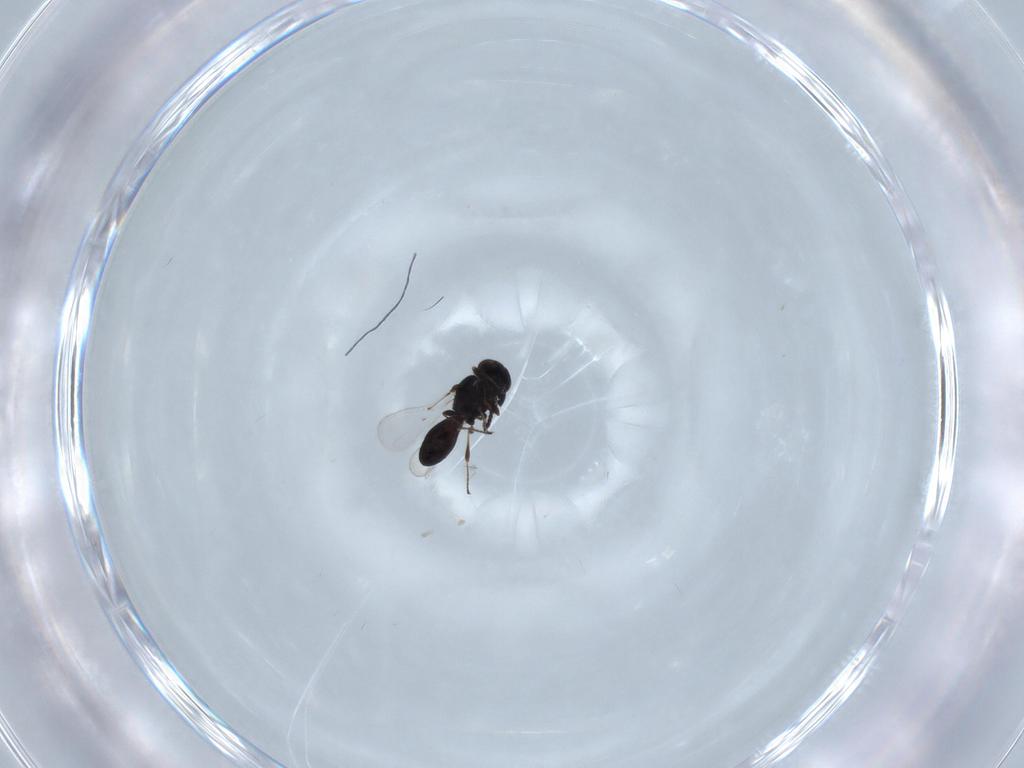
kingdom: Animalia
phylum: Arthropoda
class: Insecta
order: Hymenoptera
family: Platygastridae
